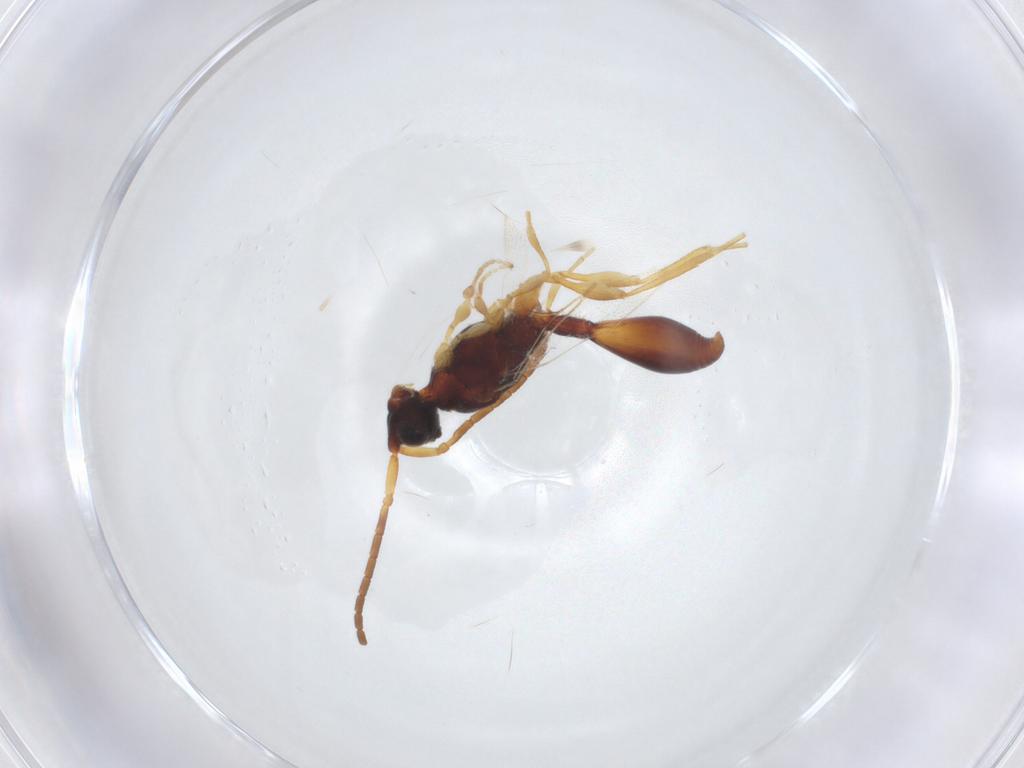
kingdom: Animalia
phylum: Arthropoda
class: Insecta
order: Hymenoptera
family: Diapriidae
